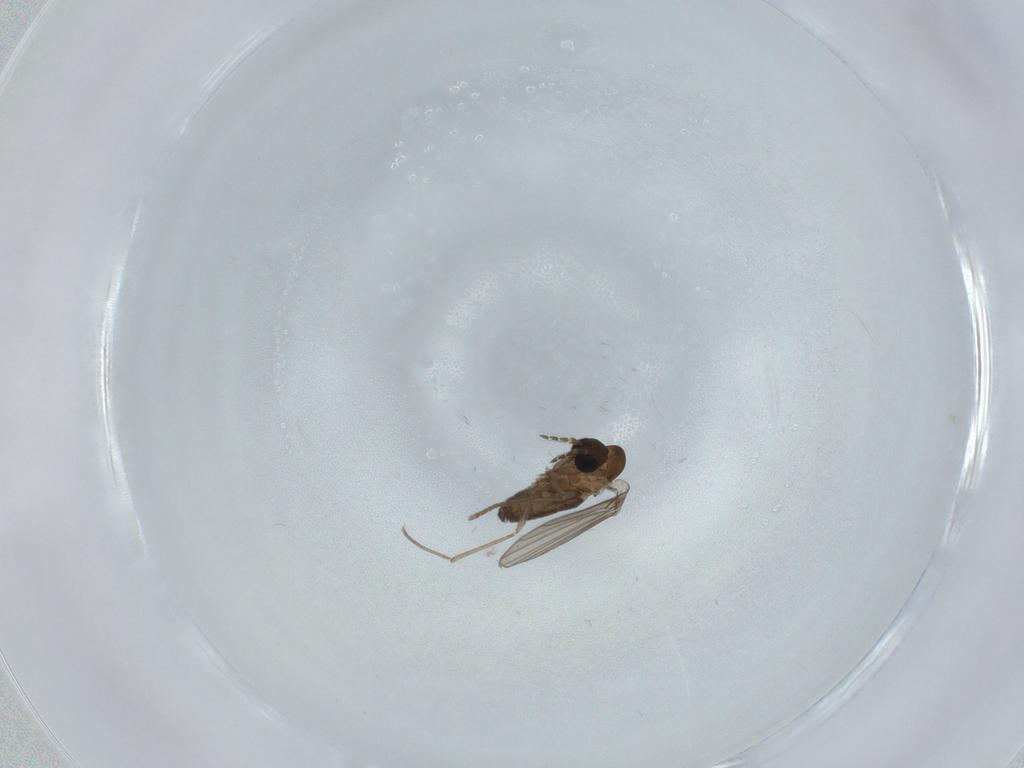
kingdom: Animalia
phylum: Arthropoda
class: Insecta
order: Diptera
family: Psychodidae
